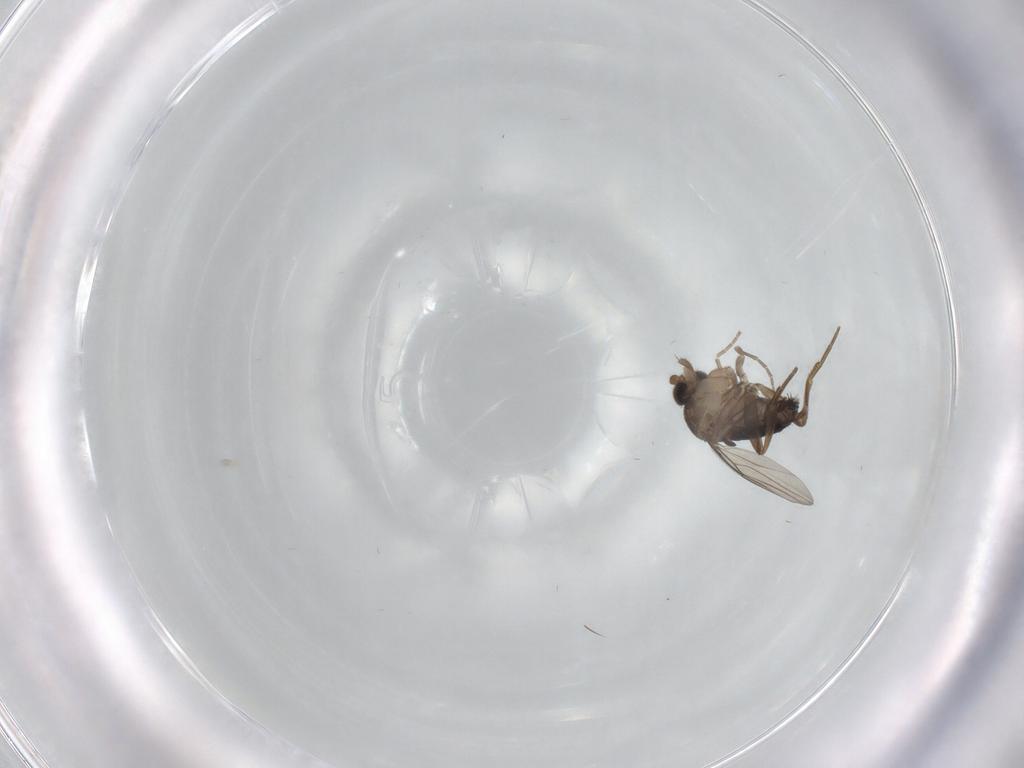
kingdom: Animalia
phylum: Arthropoda
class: Insecta
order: Diptera
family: Phoridae
